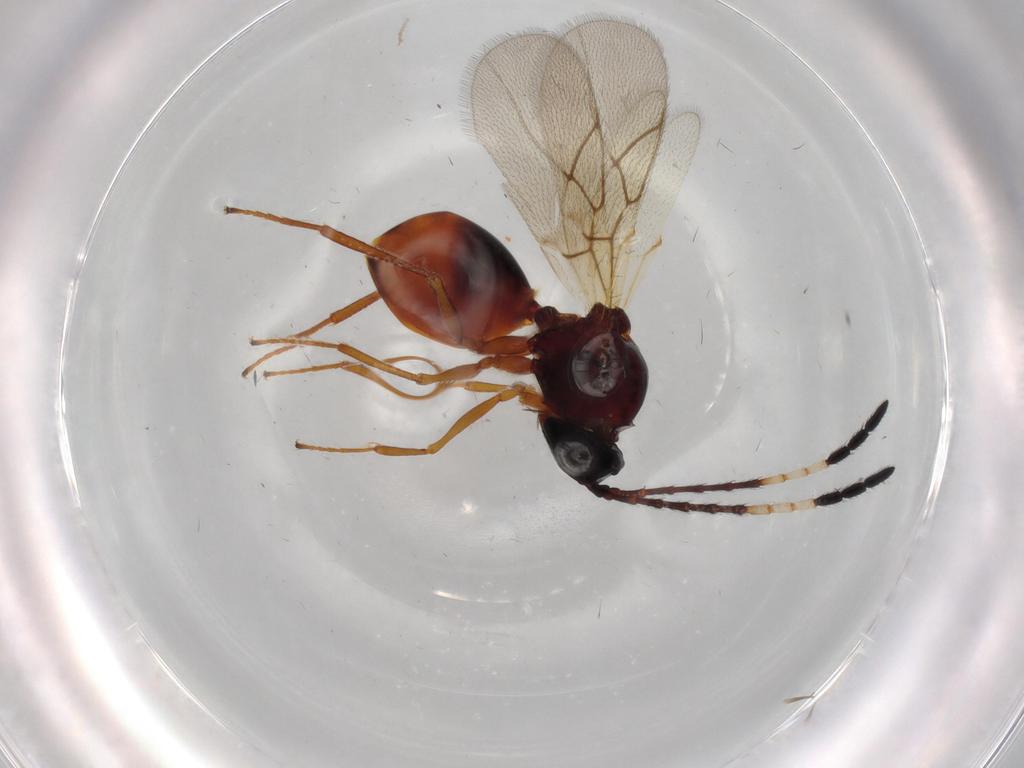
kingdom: Animalia
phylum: Arthropoda
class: Insecta
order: Hymenoptera
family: Figitidae
